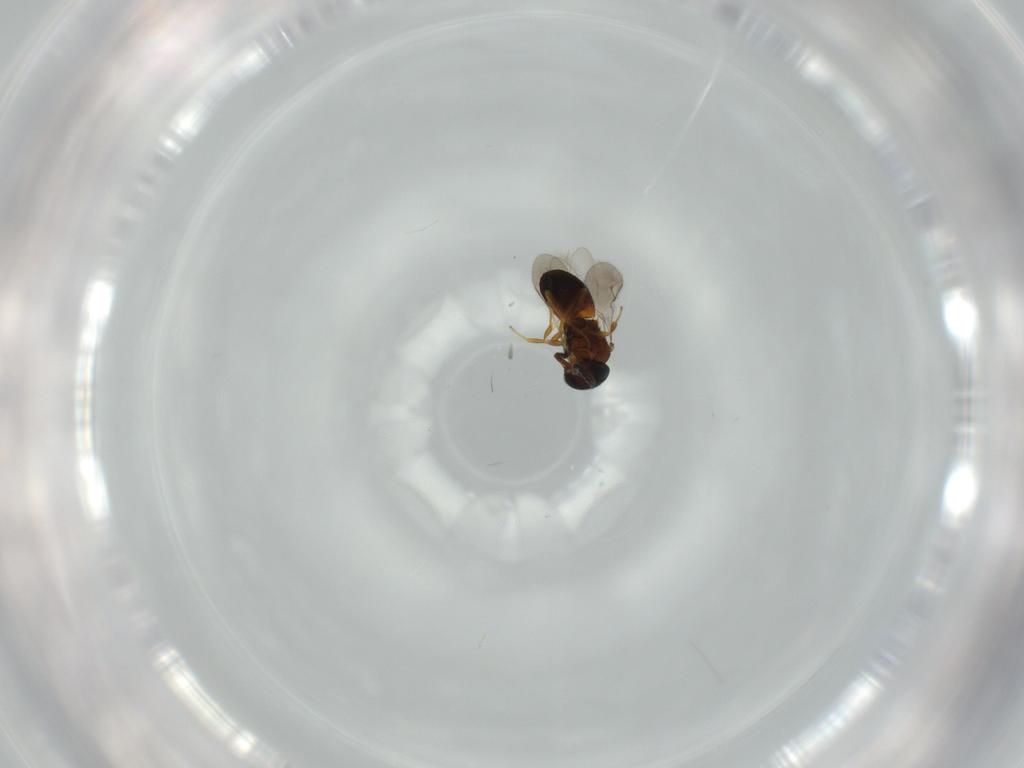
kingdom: Animalia
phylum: Arthropoda
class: Insecta
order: Hymenoptera
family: Scelionidae
